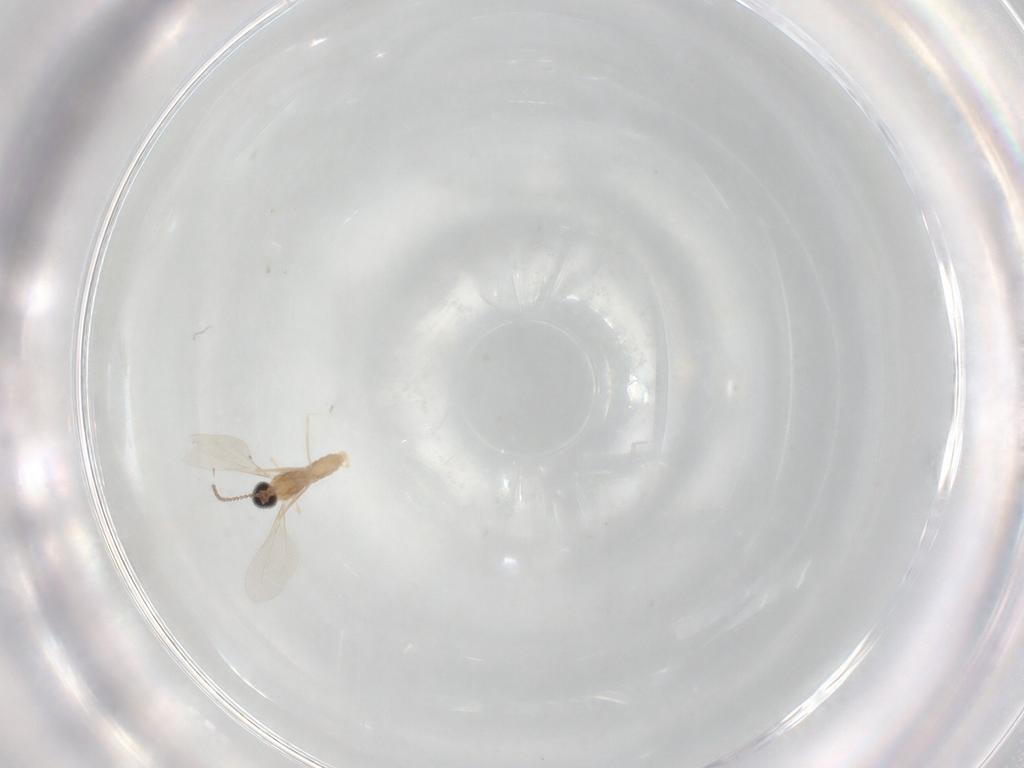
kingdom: Animalia
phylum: Arthropoda
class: Insecta
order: Diptera
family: Cecidomyiidae
